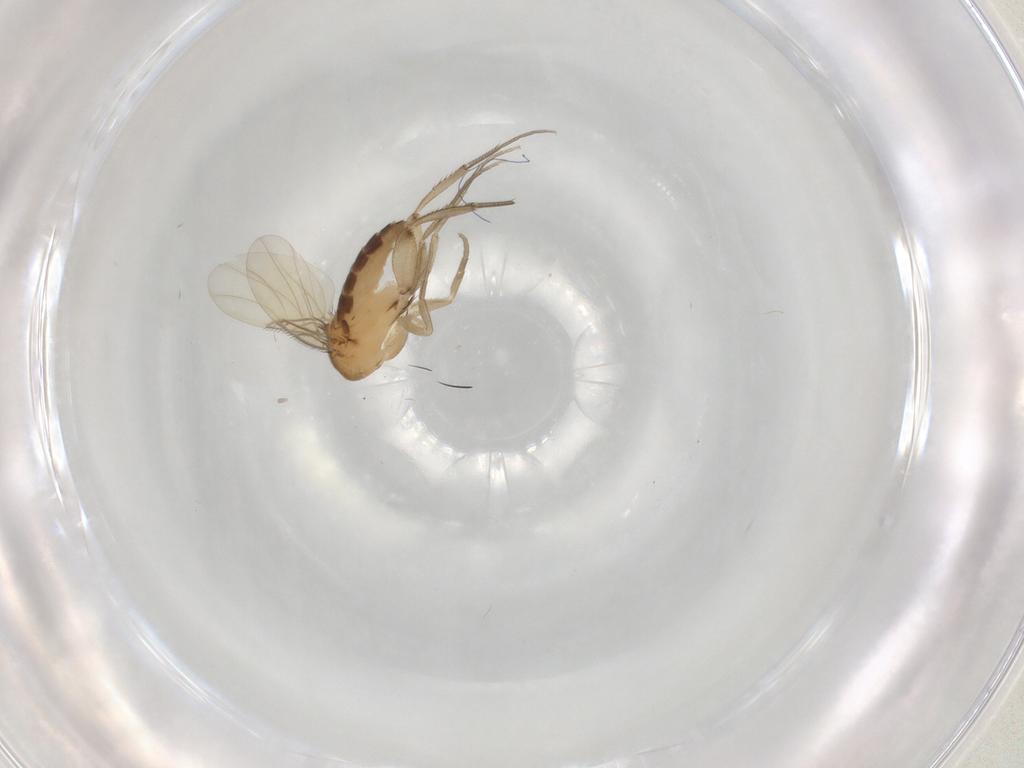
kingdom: Animalia
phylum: Arthropoda
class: Insecta
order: Diptera
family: Phoridae
